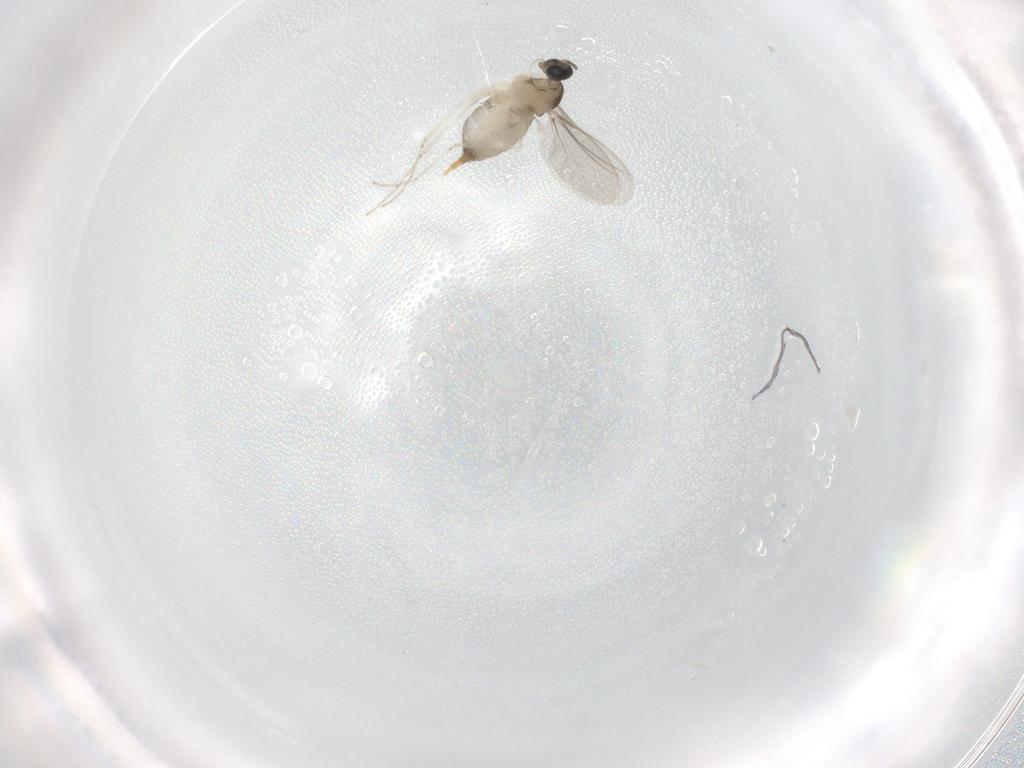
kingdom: Animalia
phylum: Arthropoda
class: Insecta
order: Diptera
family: Cecidomyiidae
